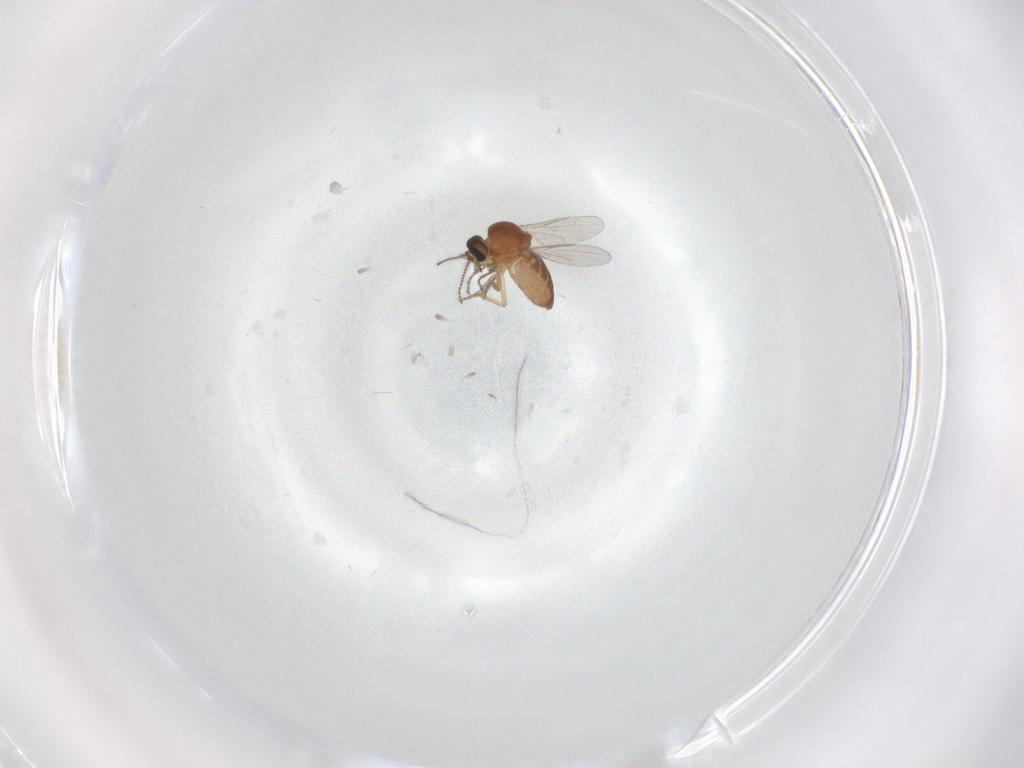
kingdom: Animalia
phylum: Arthropoda
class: Insecta
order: Diptera
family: Ceratopogonidae
